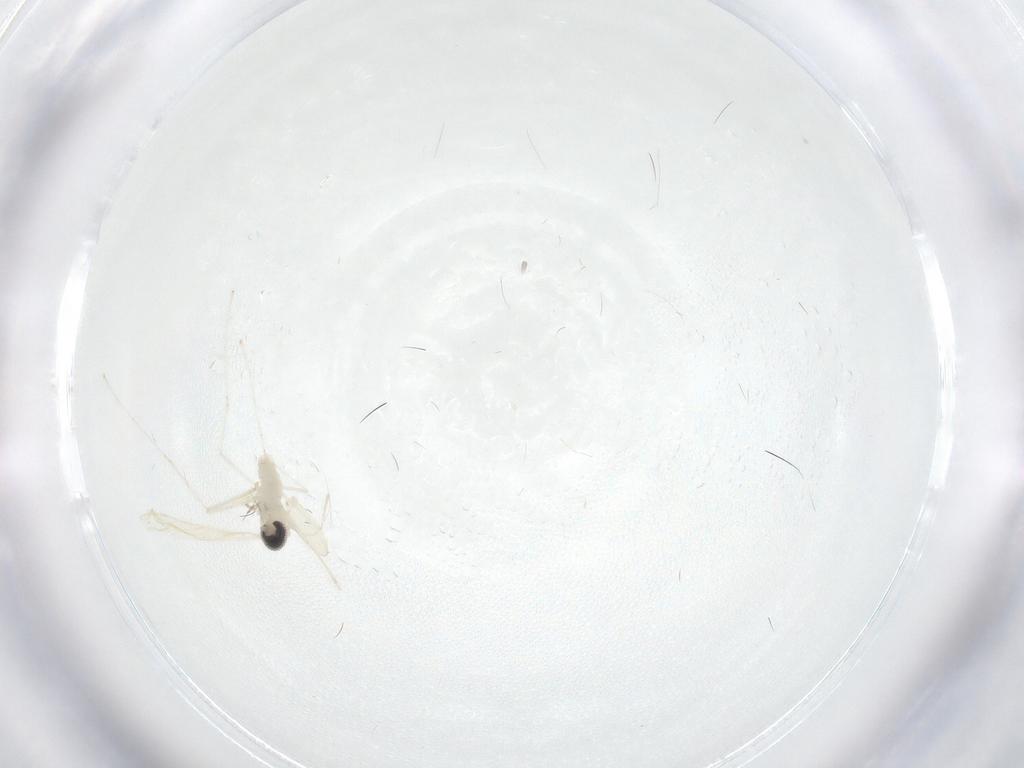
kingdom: Animalia
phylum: Arthropoda
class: Insecta
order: Diptera
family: Cecidomyiidae
